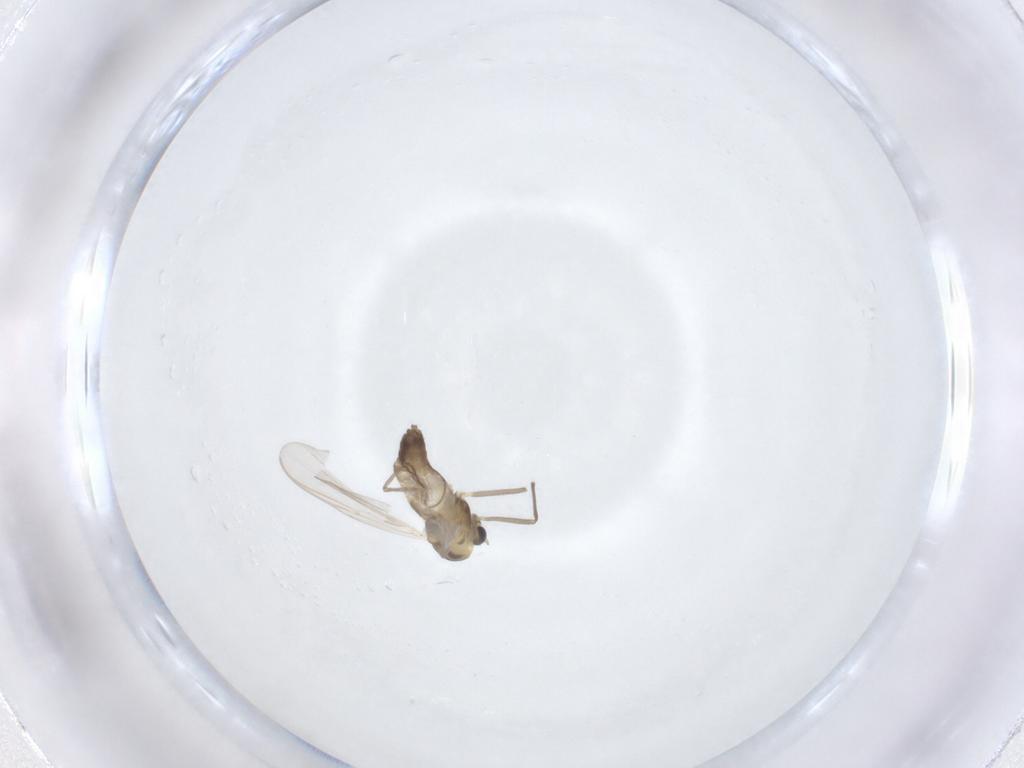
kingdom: Animalia
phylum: Arthropoda
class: Insecta
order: Diptera
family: Chironomidae
